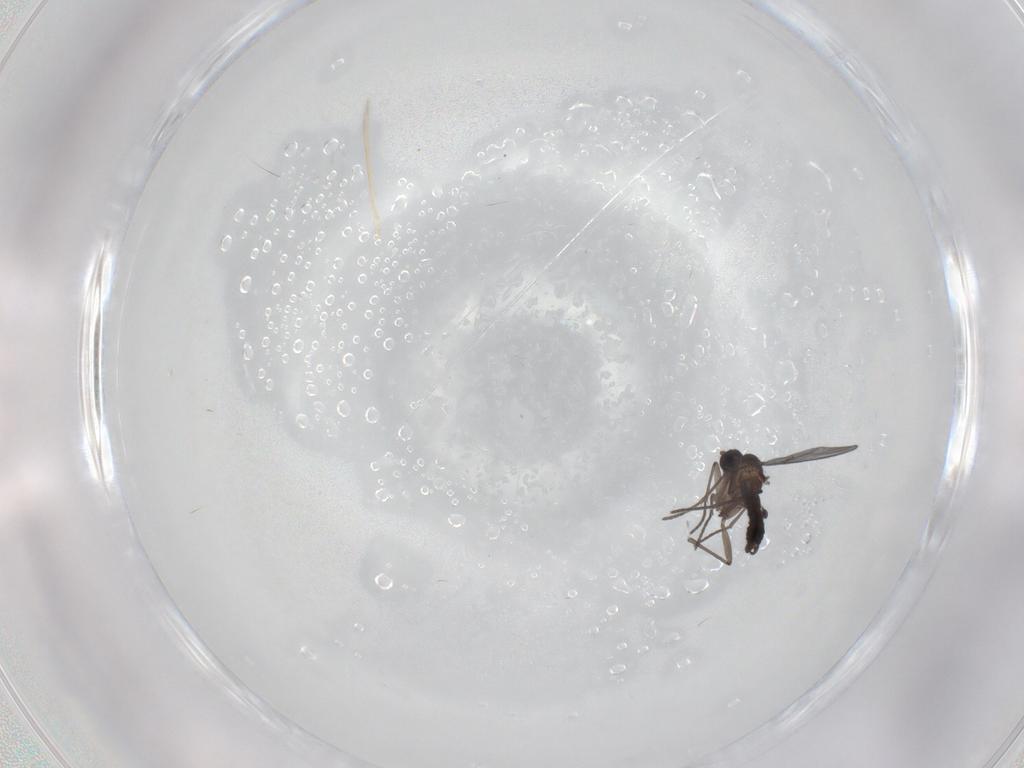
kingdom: Animalia
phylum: Arthropoda
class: Insecta
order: Diptera
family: Sciaridae
